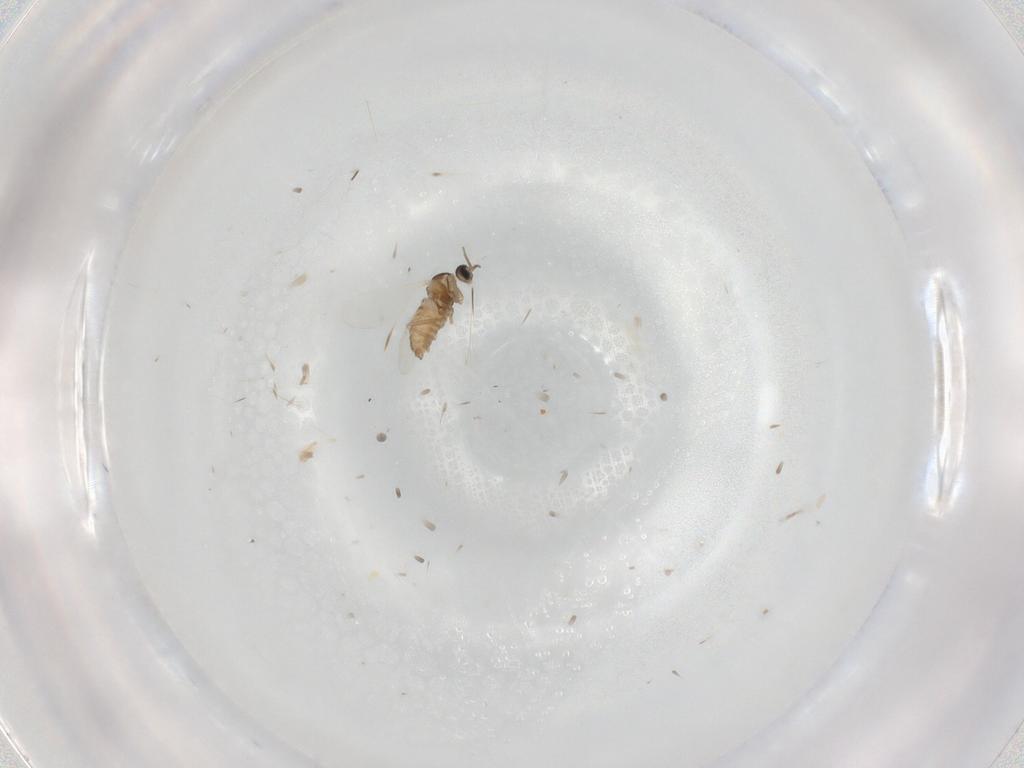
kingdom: Animalia
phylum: Arthropoda
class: Insecta
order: Diptera
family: Cecidomyiidae
